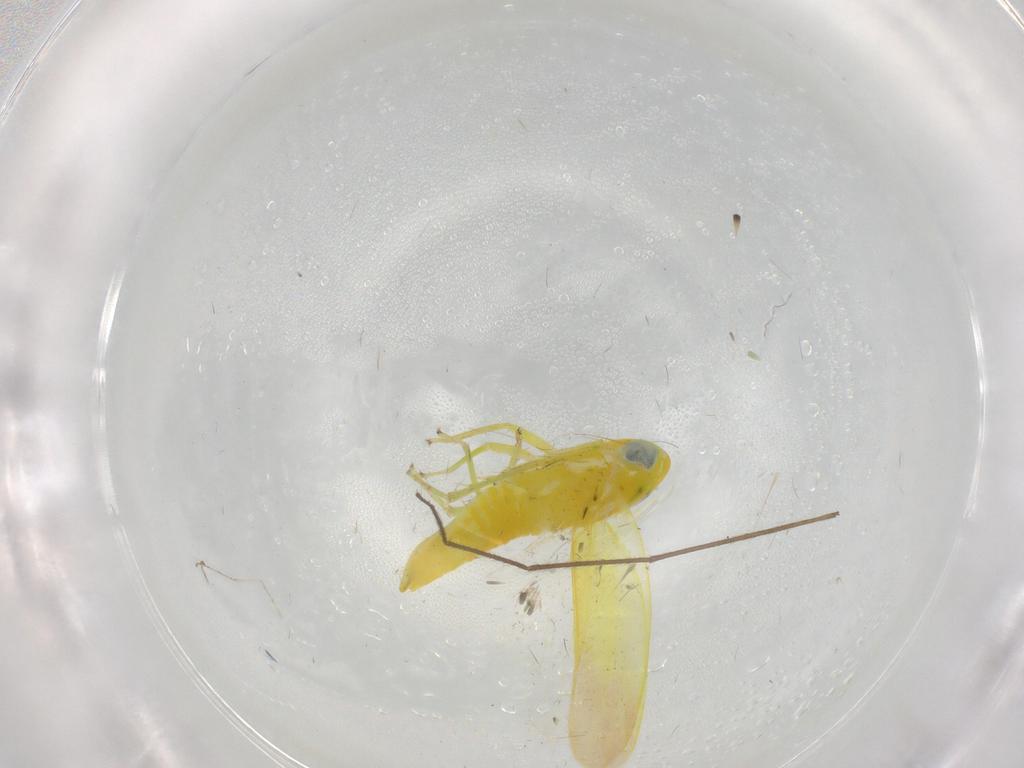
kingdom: Animalia
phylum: Arthropoda
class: Insecta
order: Hemiptera
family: Cicadellidae
